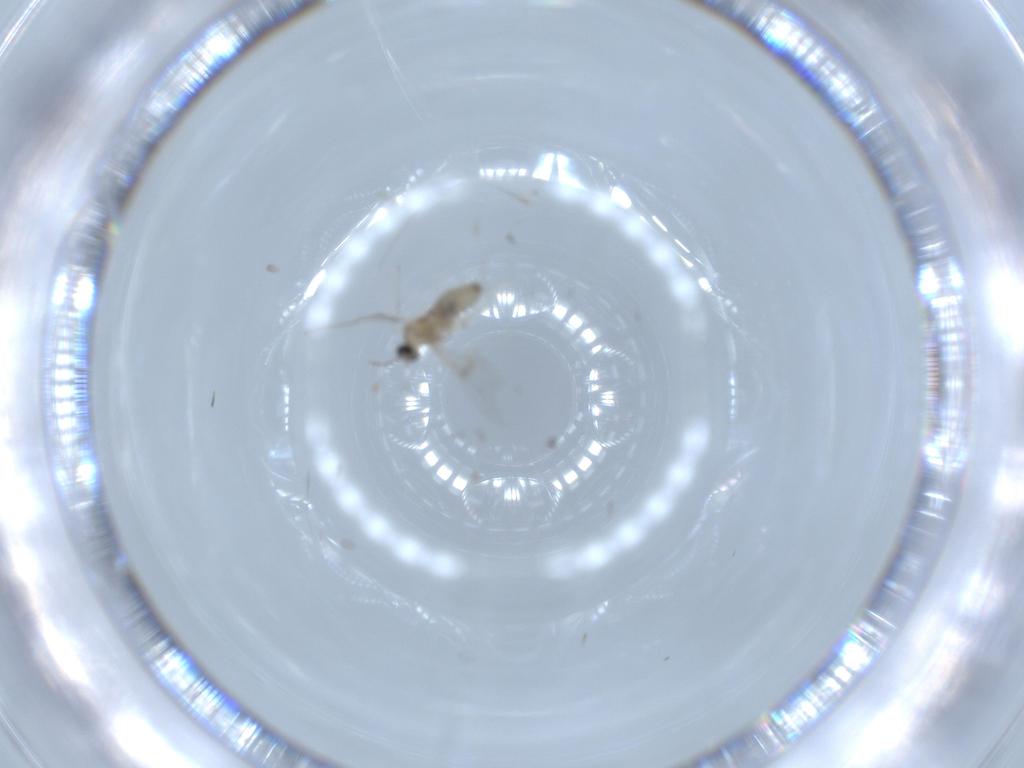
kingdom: Animalia
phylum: Arthropoda
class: Insecta
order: Diptera
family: Cecidomyiidae
